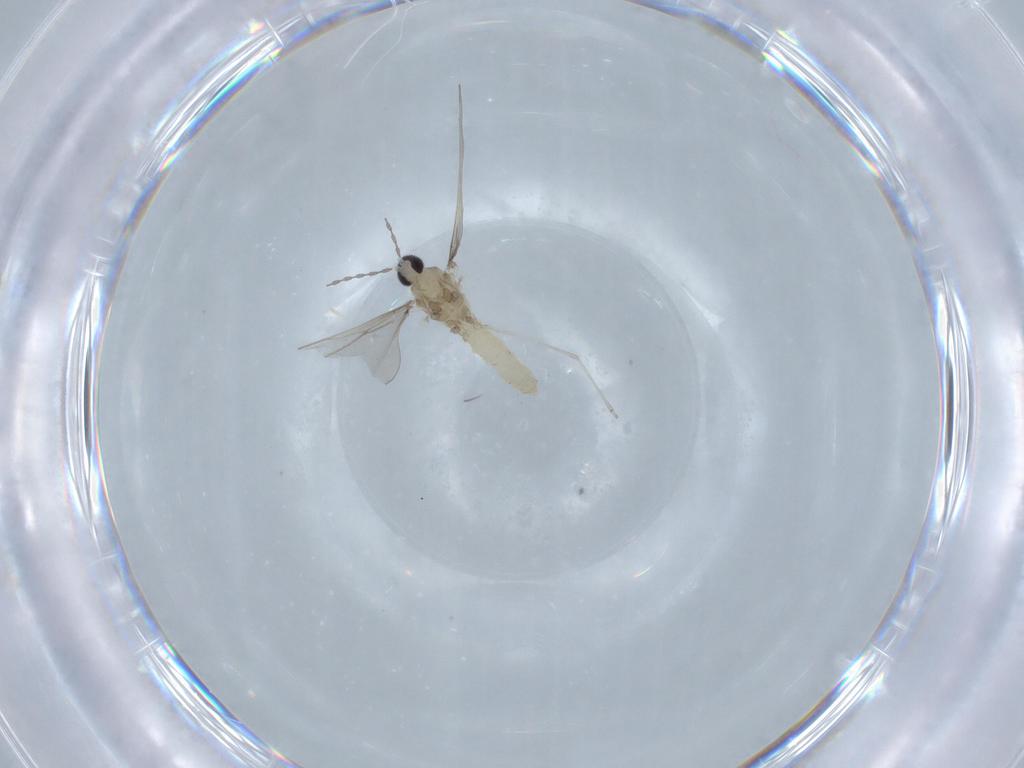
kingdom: Animalia
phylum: Arthropoda
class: Insecta
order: Diptera
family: Cecidomyiidae
